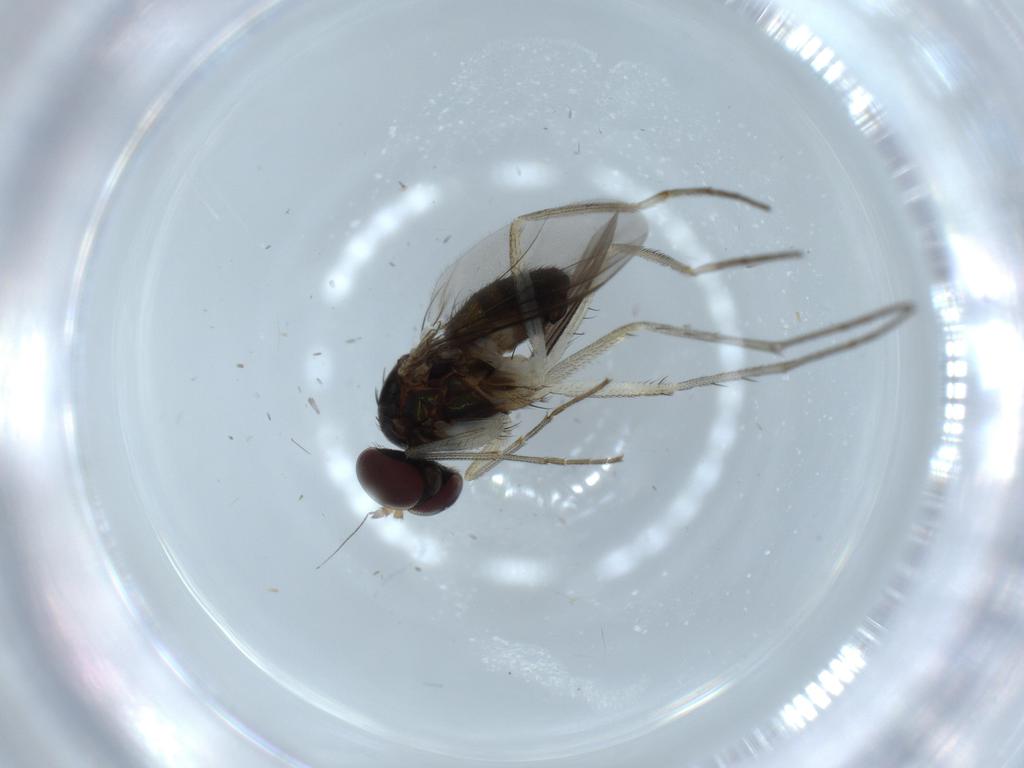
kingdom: Animalia
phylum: Arthropoda
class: Insecta
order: Diptera
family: Dolichopodidae
